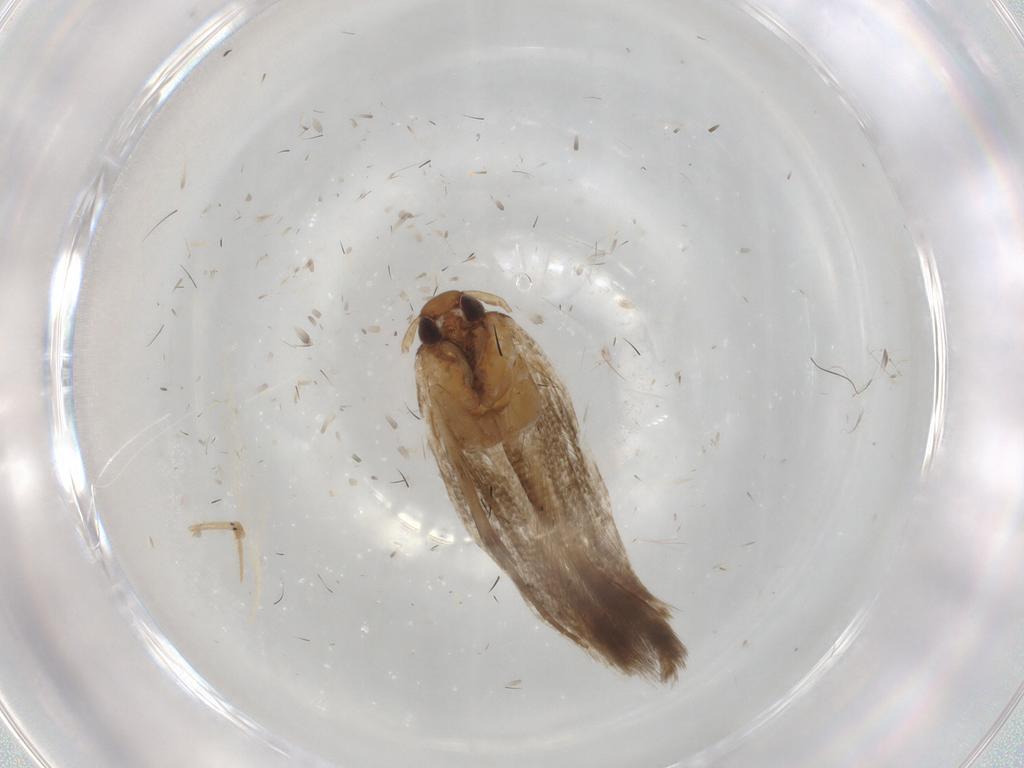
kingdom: Animalia
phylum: Arthropoda
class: Insecta
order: Lepidoptera
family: Cosmopterigidae
